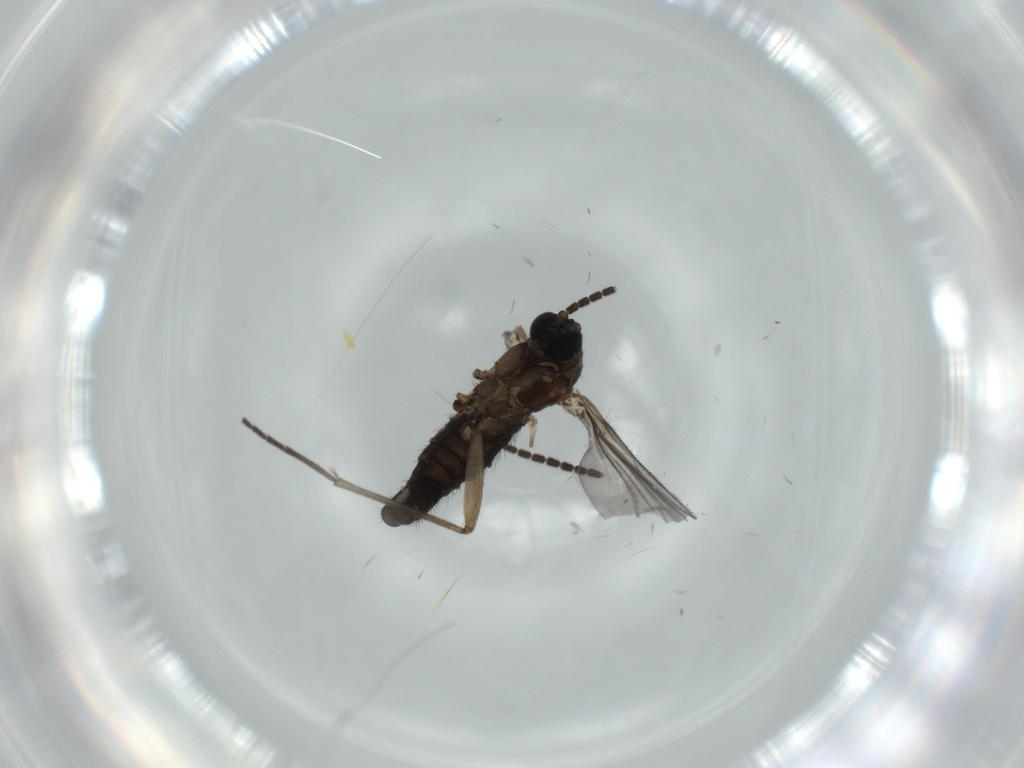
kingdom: Animalia
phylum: Arthropoda
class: Insecta
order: Diptera
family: Sciaridae
